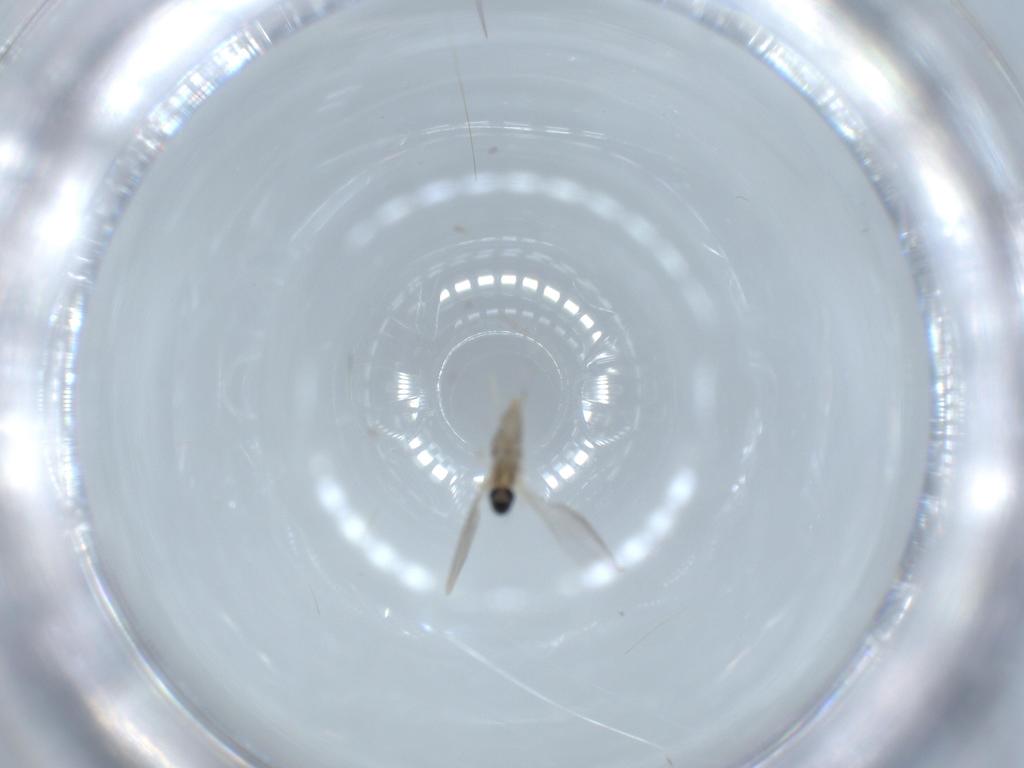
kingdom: Animalia
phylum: Arthropoda
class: Insecta
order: Diptera
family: Cecidomyiidae
